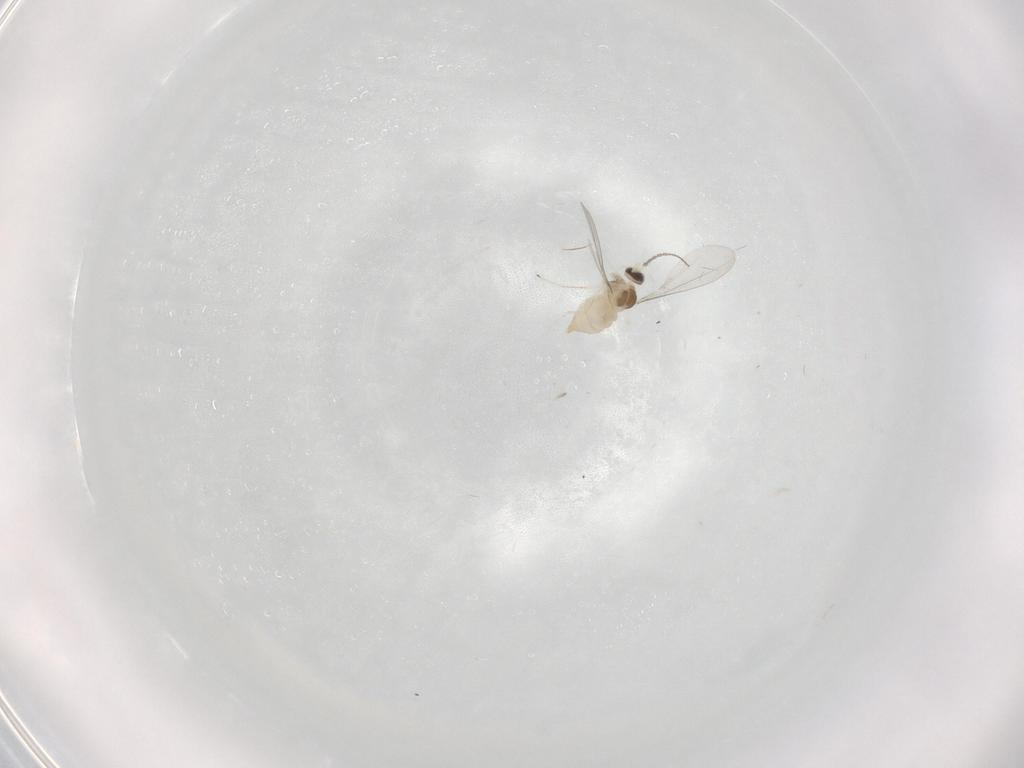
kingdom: Animalia
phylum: Arthropoda
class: Insecta
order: Diptera
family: Cecidomyiidae
